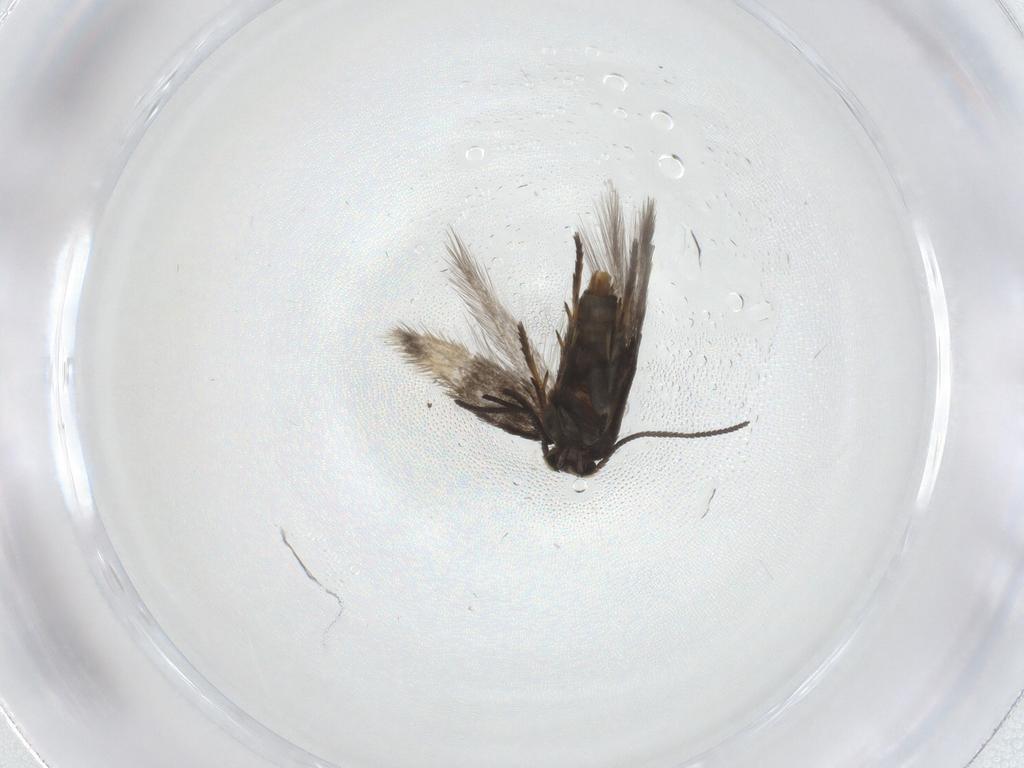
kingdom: Animalia
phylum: Arthropoda
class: Insecta
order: Lepidoptera
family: Nepticulidae
